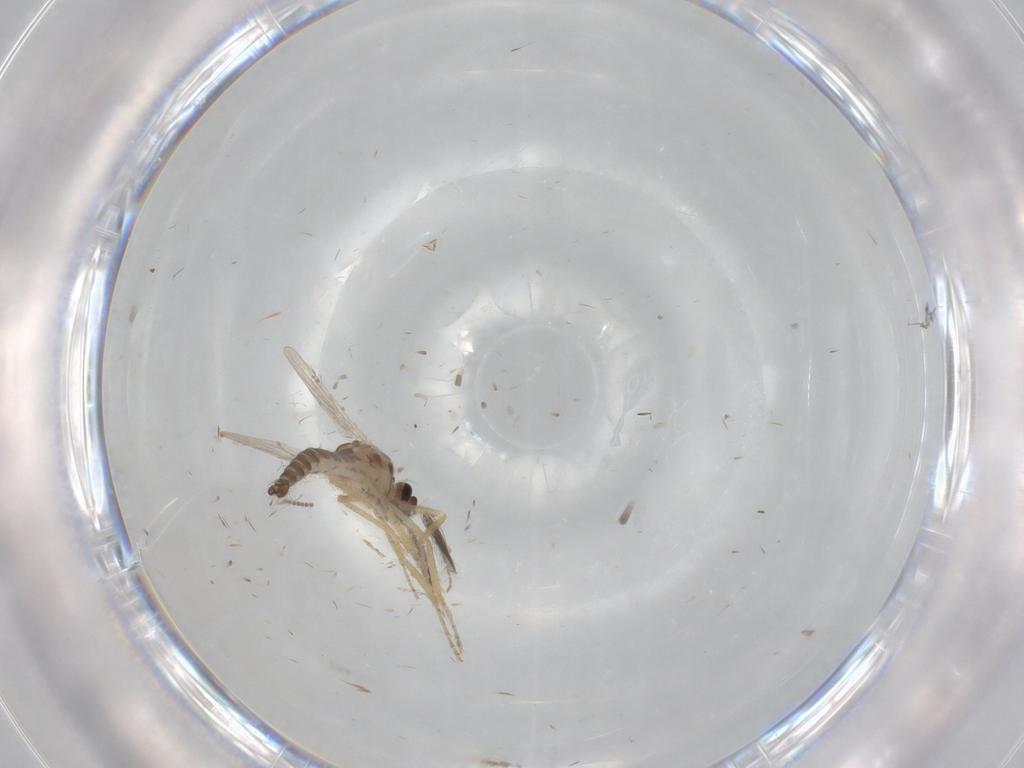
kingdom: Animalia
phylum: Arthropoda
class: Insecta
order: Diptera
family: Ceratopogonidae
